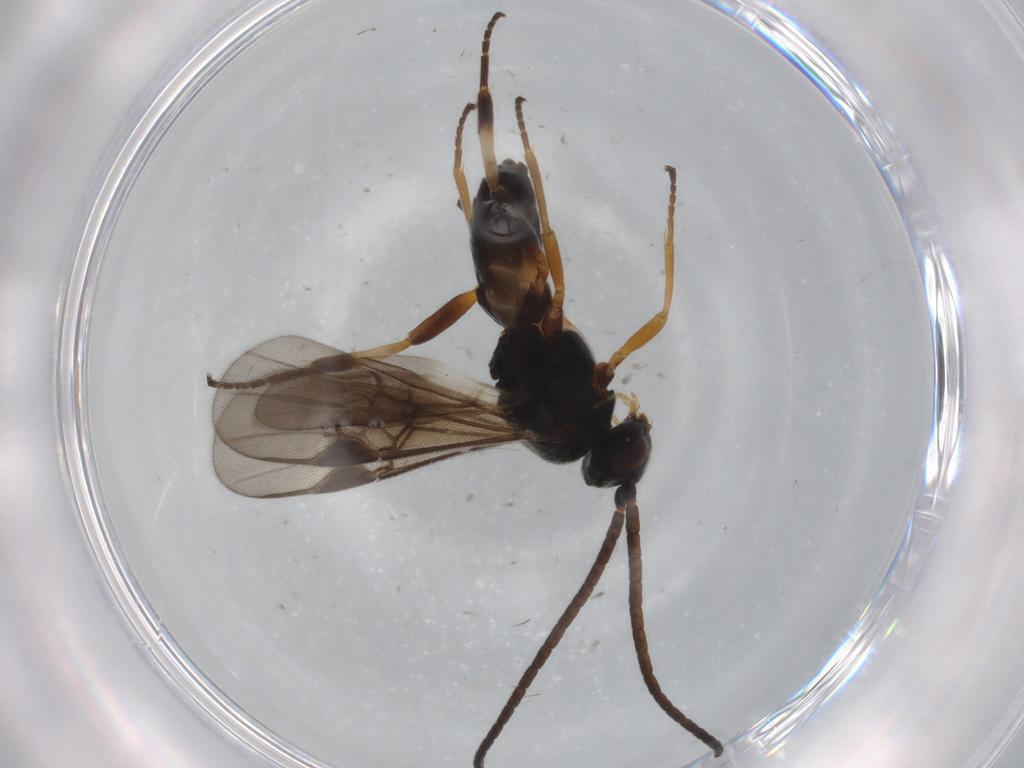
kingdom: Animalia
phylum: Arthropoda
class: Insecta
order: Hymenoptera
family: Braconidae
